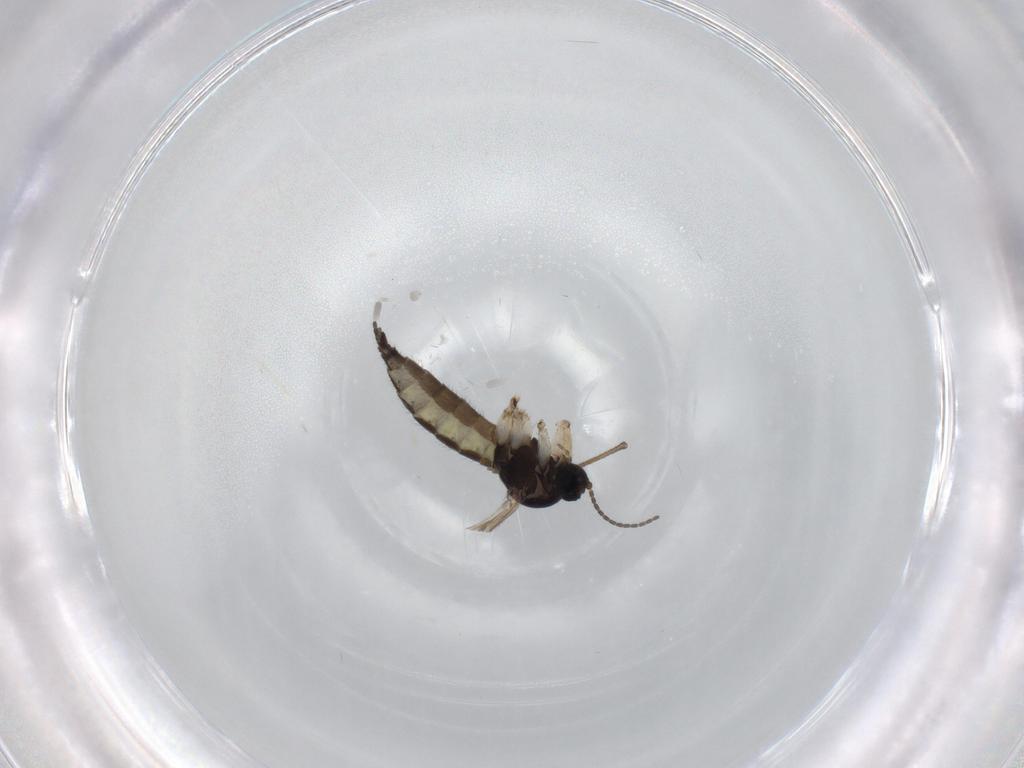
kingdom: Animalia
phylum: Arthropoda
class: Insecta
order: Diptera
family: Sciaridae
